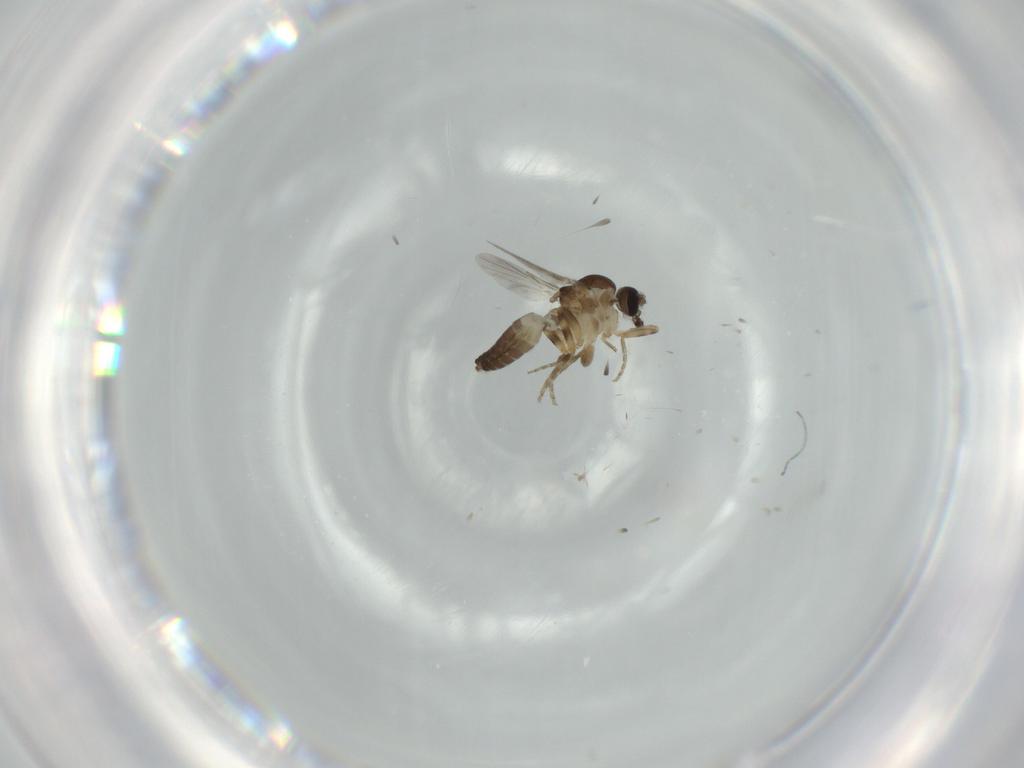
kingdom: Animalia
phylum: Arthropoda
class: Insecta
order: Diptera
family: Ceratopogonidae
